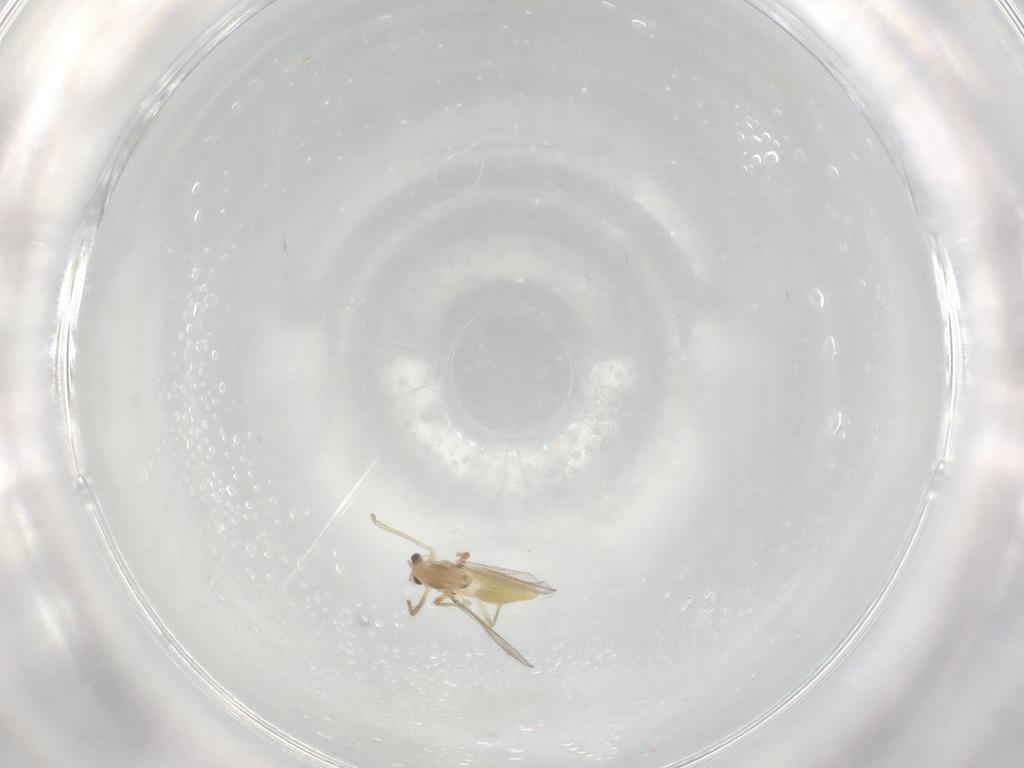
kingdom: Animalia
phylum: Arthropoda
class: Insecta
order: Diptera
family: Chironomidae
